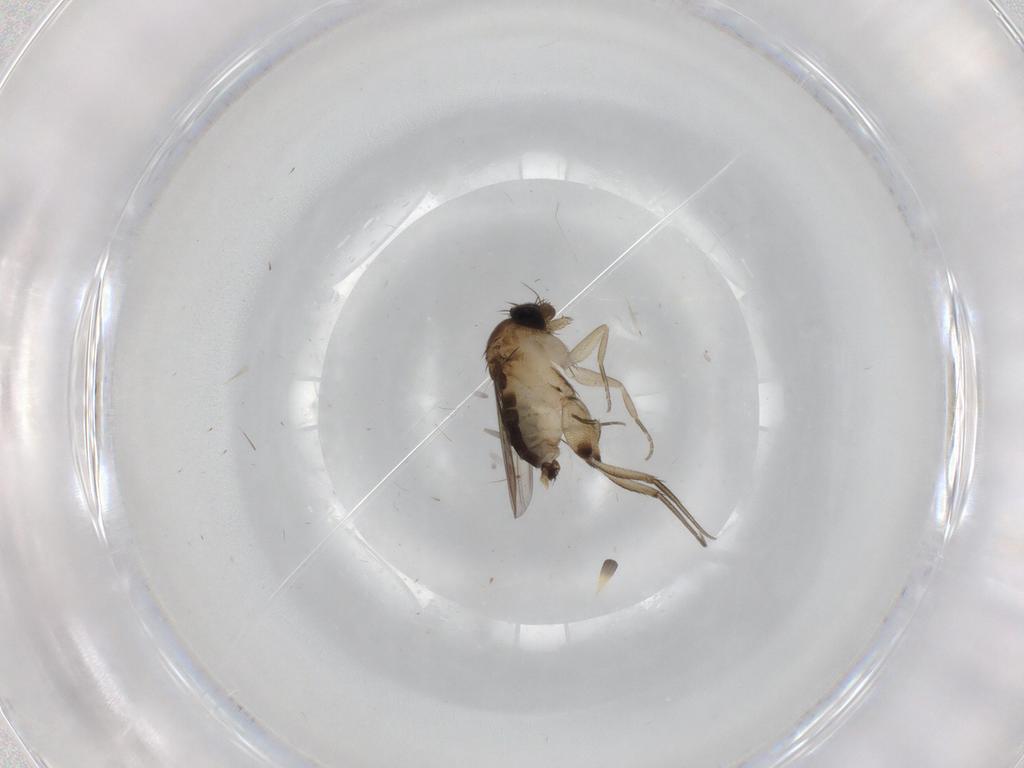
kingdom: Animalia
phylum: Arthropoda
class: Insecta
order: Diptera
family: Phoridae
